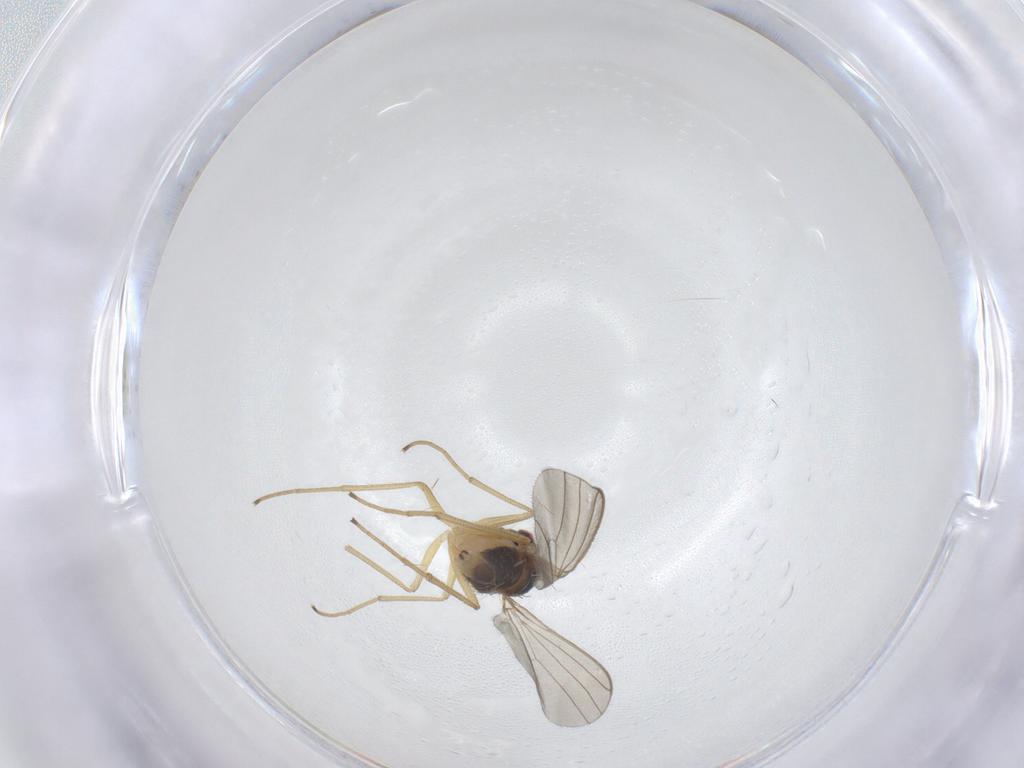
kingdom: Animalia
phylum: Arthropoda
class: Insecta
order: Diptera
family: Dolichopodidae
